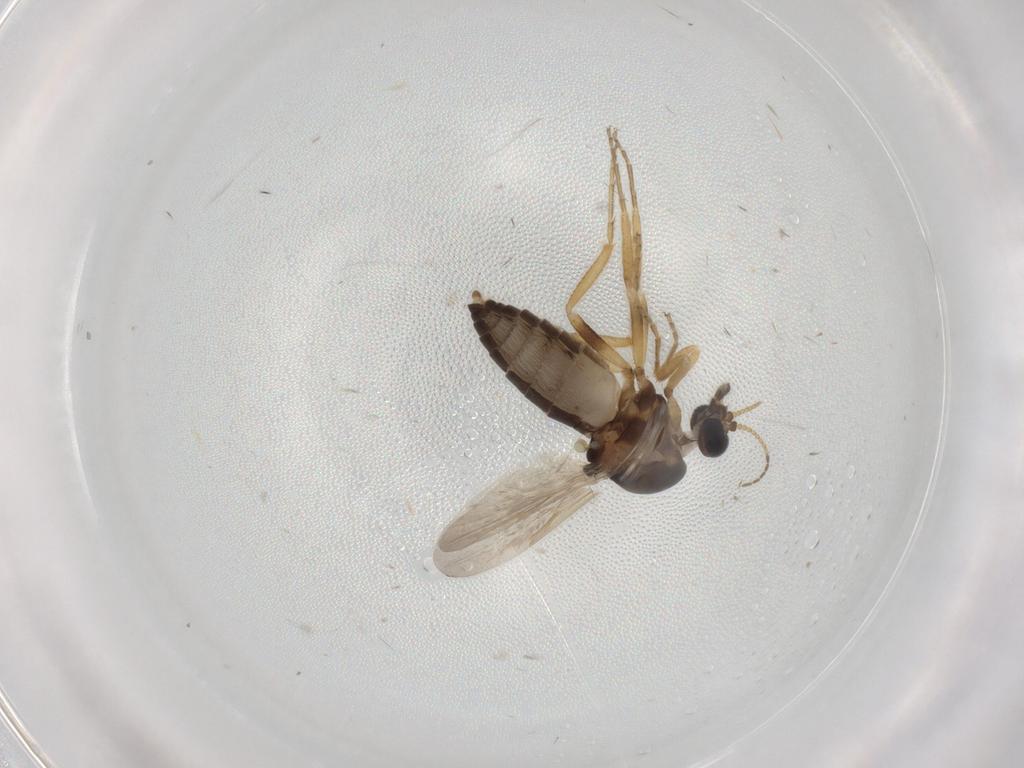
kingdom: Animalia
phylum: Arthropoda
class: Insecta
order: Diptera
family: Ceratopogonidae
